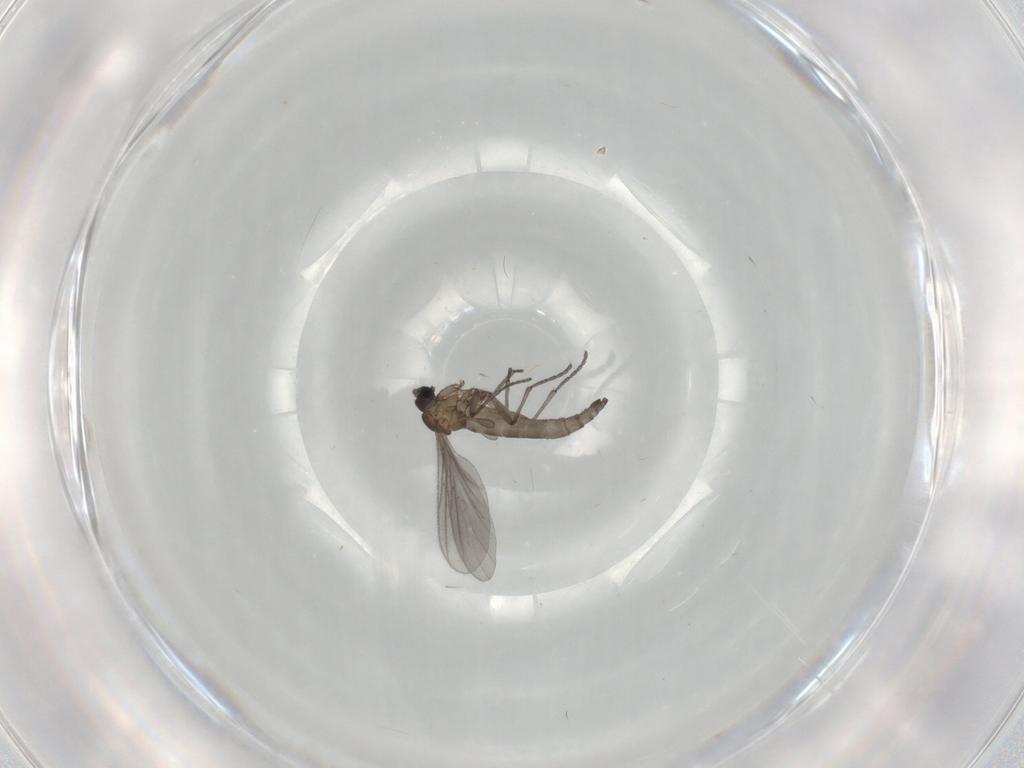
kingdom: Animalia
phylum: Arthropoda
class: Insecta
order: Diptera
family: Sciaridae
